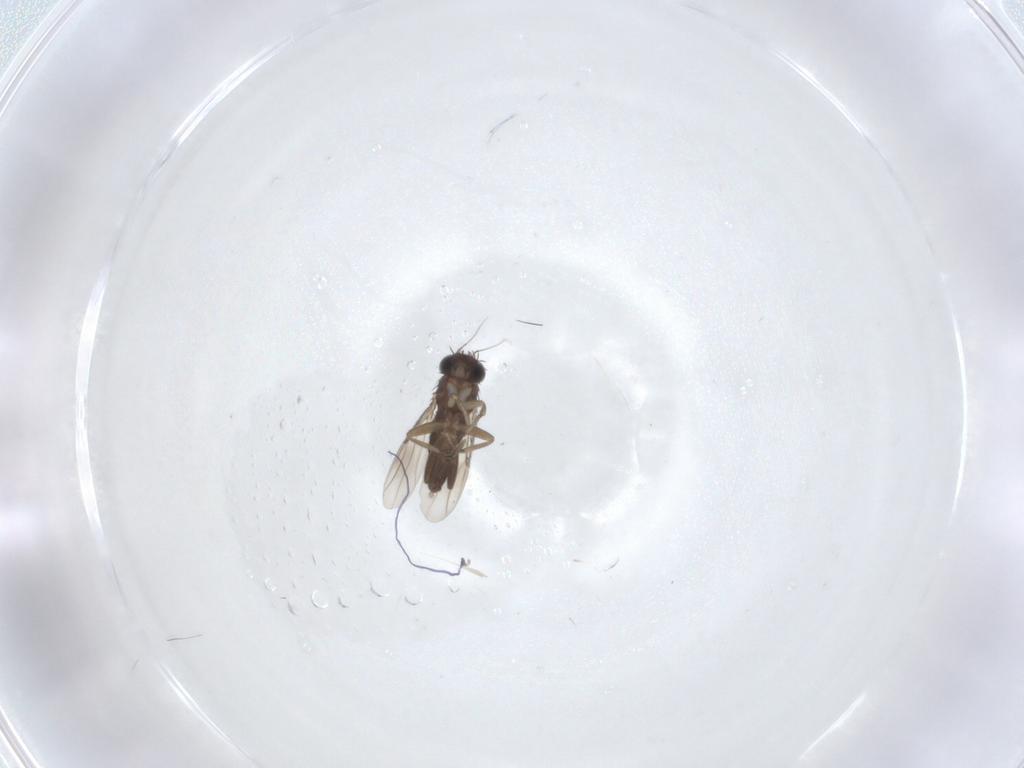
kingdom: Animalia
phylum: Arthropoda
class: Insecta
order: Diptera
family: Phoridae
